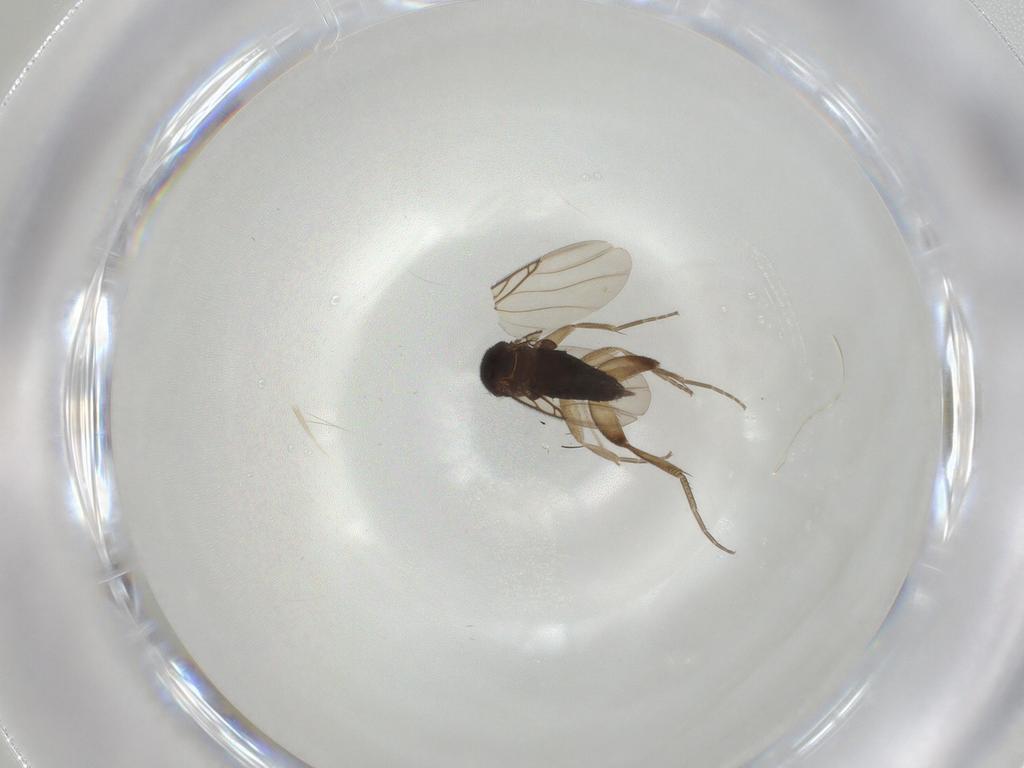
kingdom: Animalia
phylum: Arthropoda
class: Insecta
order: Diptera
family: Phoridae
